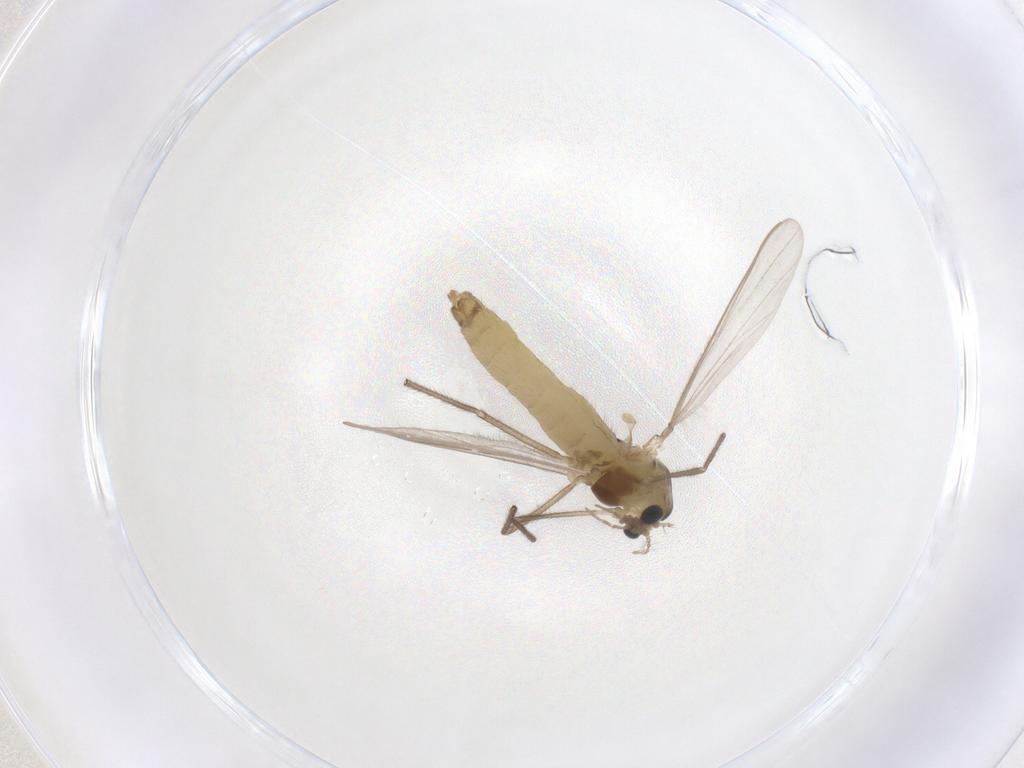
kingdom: Animalia
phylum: Arthropoda
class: Insecta
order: Diptera
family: Chironomidae
